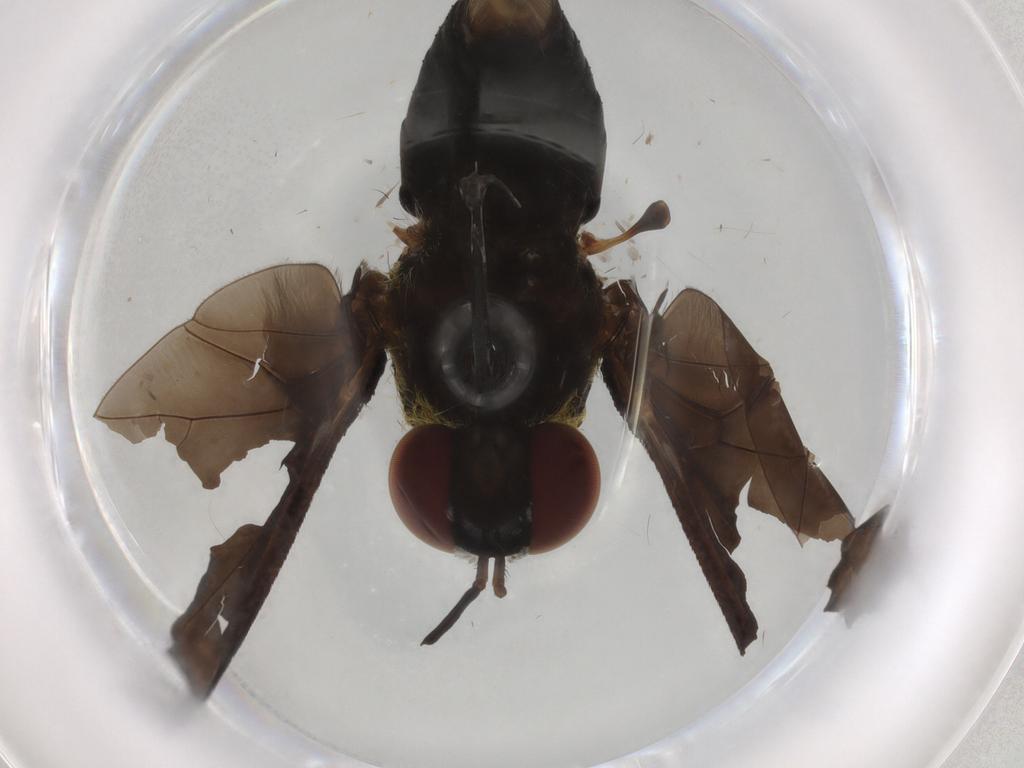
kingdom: Animalia
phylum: Arthropoda
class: Insecta
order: Diptera
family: Bombyliidae
